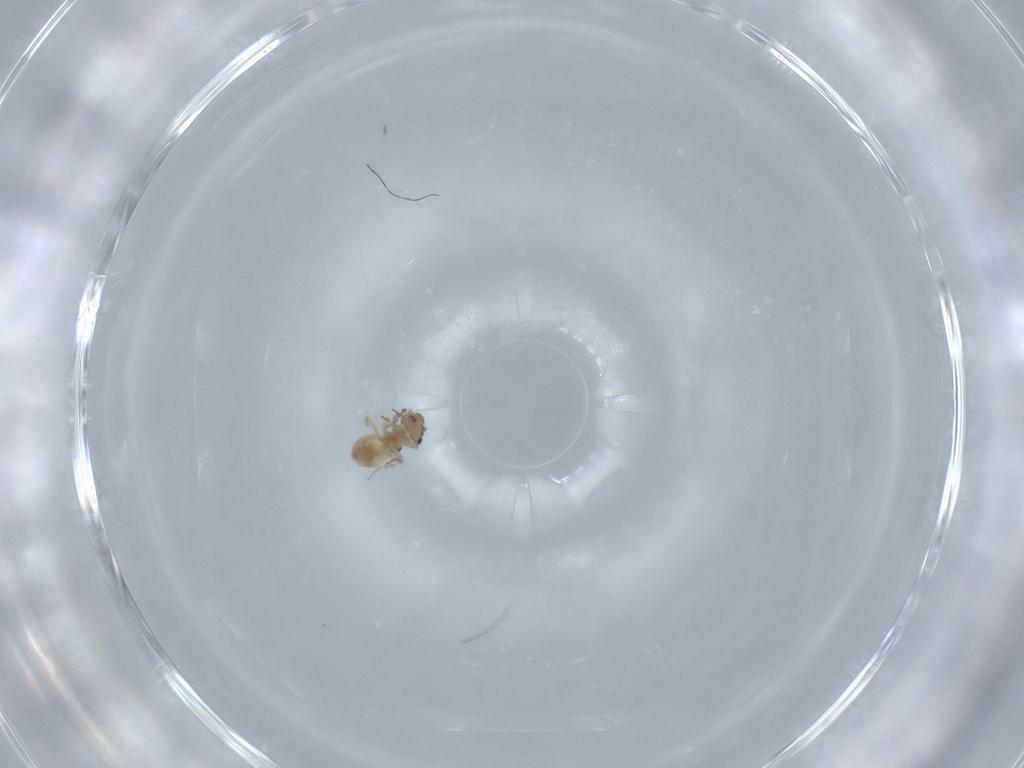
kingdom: Animalia
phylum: Arthropoda
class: Insecta
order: Psocodea
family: Lepidopsocidae
